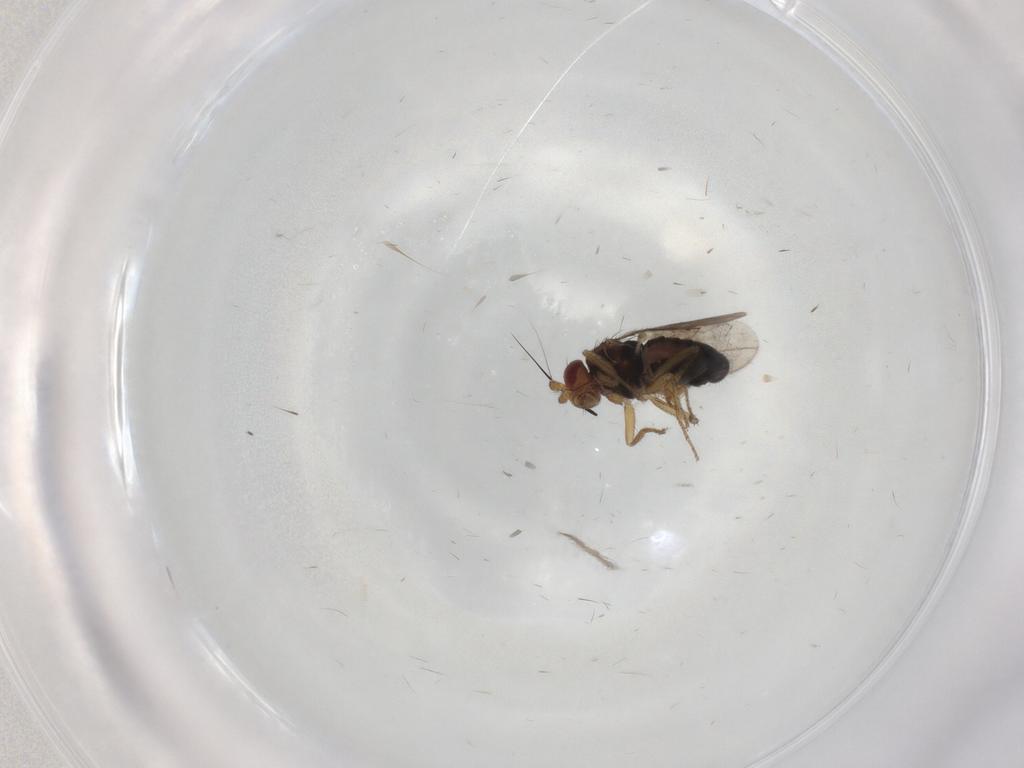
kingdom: Animalia
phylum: Arthropoda
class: Insecta
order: Diptera
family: Sphaeroceridae
